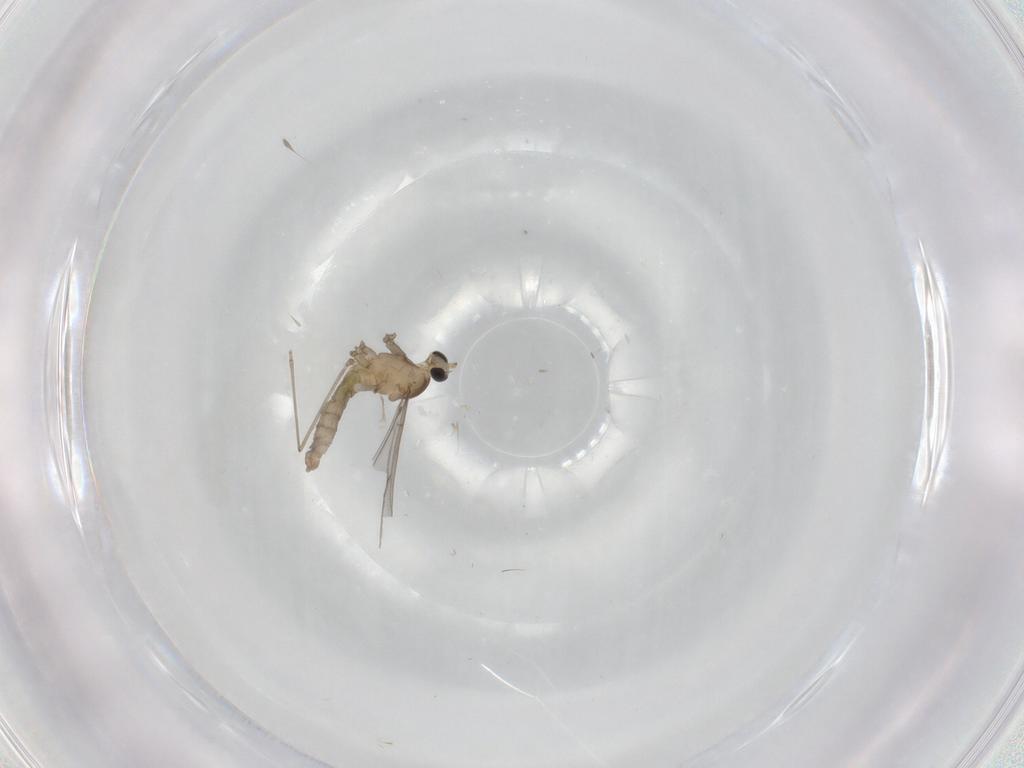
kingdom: Animalia
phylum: Arthropoda
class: Insecta
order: Diptera
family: Cecidomyiidae
